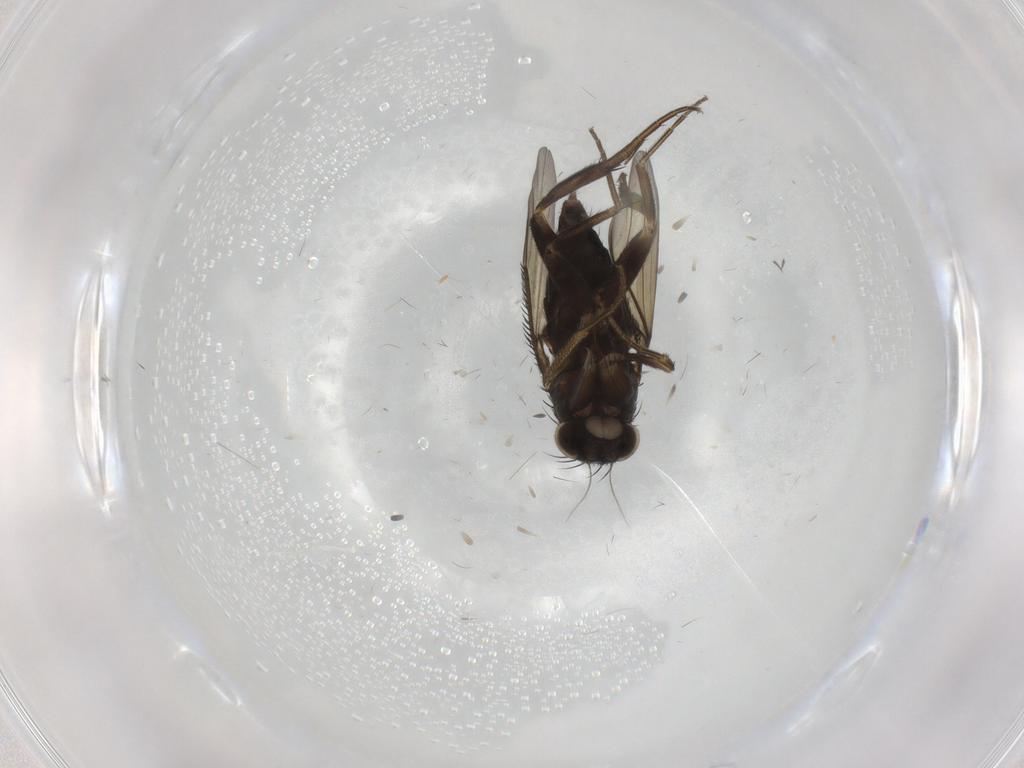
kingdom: Animalia
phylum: Arthropoda
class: Insecta
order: Diptera
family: Limoniidae
